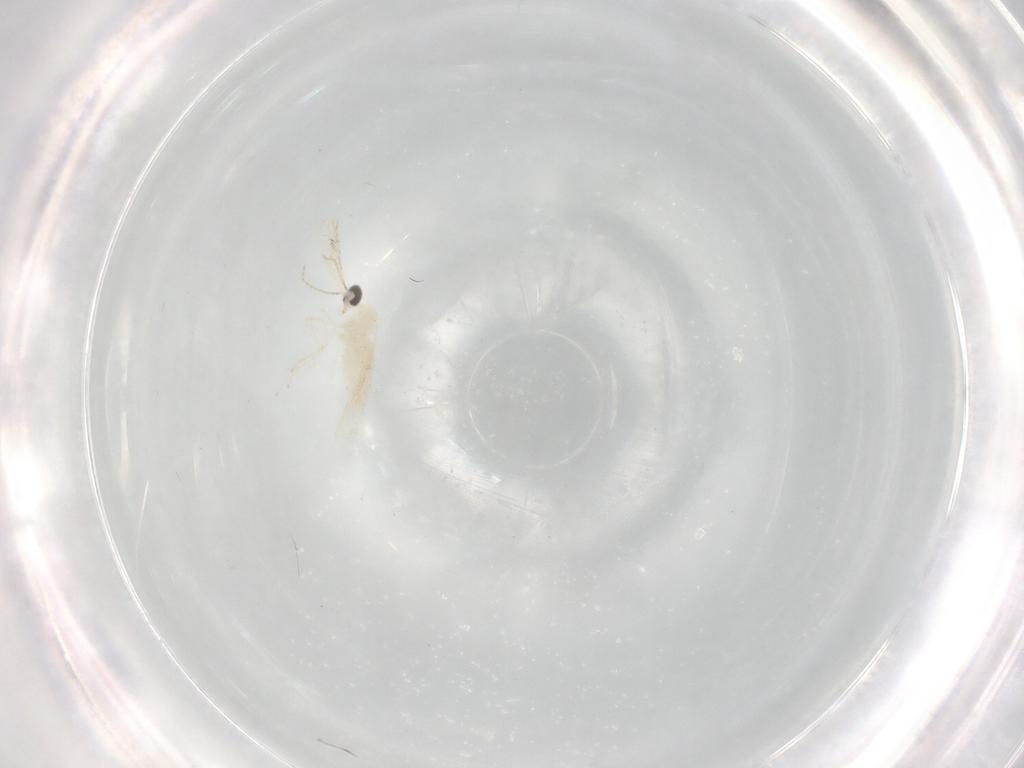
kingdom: Animalia
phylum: Arthropoda
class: Insecta
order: Diptera
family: Cecidomyiidae
